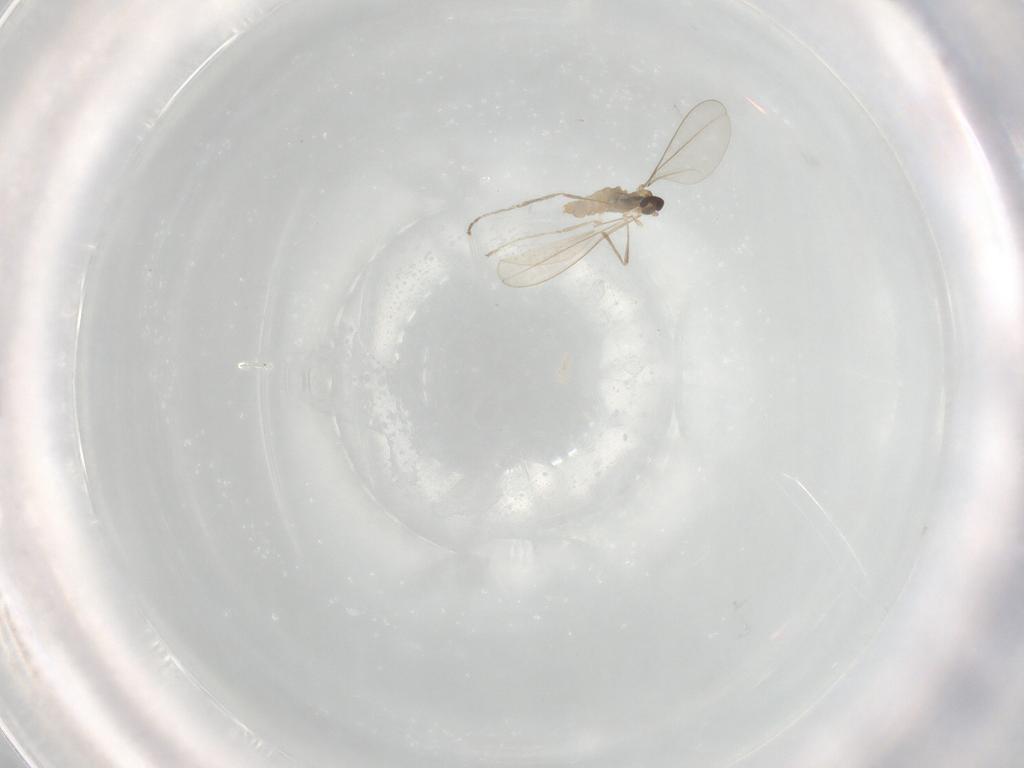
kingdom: Animalia
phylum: Arthropoda
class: Insecta
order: Diptera
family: Cecidomyiidae
